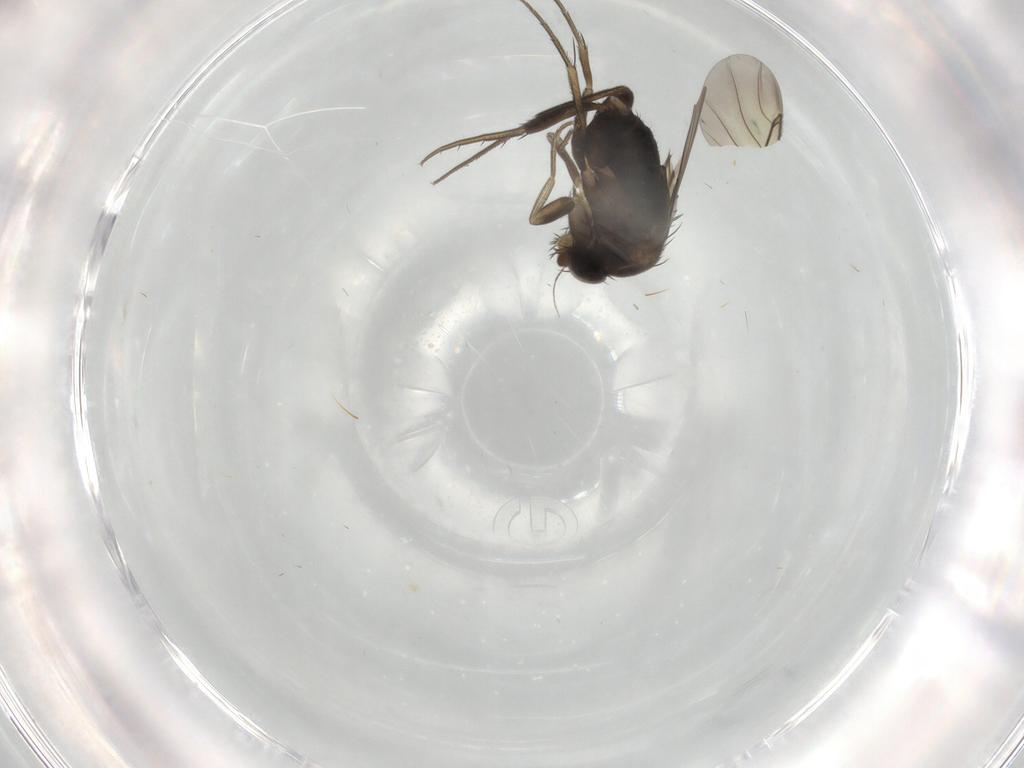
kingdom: Animalia
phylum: Arthropoda
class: Insecta
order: Diptera
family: Phoridae
